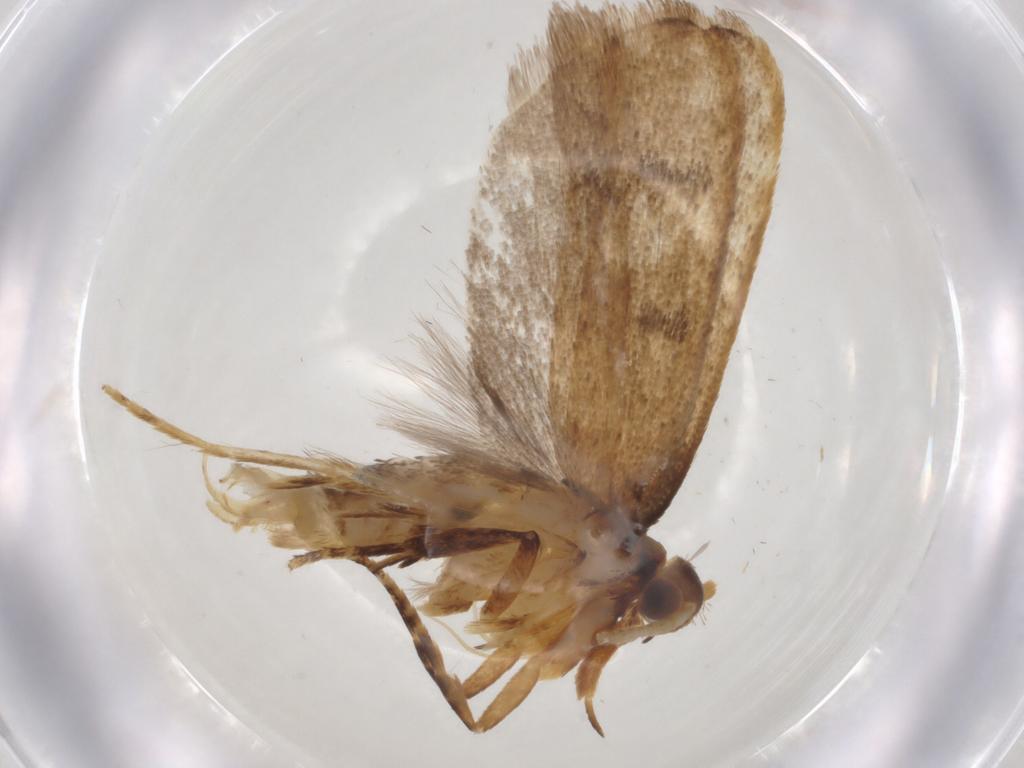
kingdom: Animalia
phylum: Arthropoda
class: Insecta
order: Lepidoptera
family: Lecithoceridae
